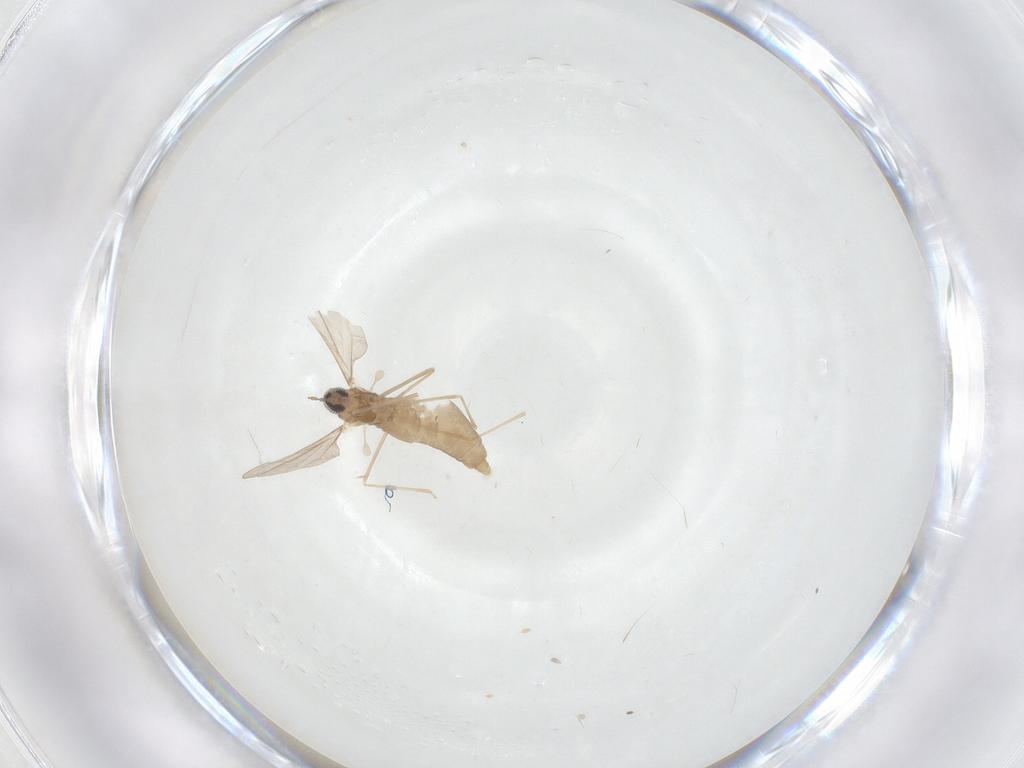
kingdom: Animalia
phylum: Arthropoda
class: Insecta
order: Diptera
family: Cecidomyiidae
